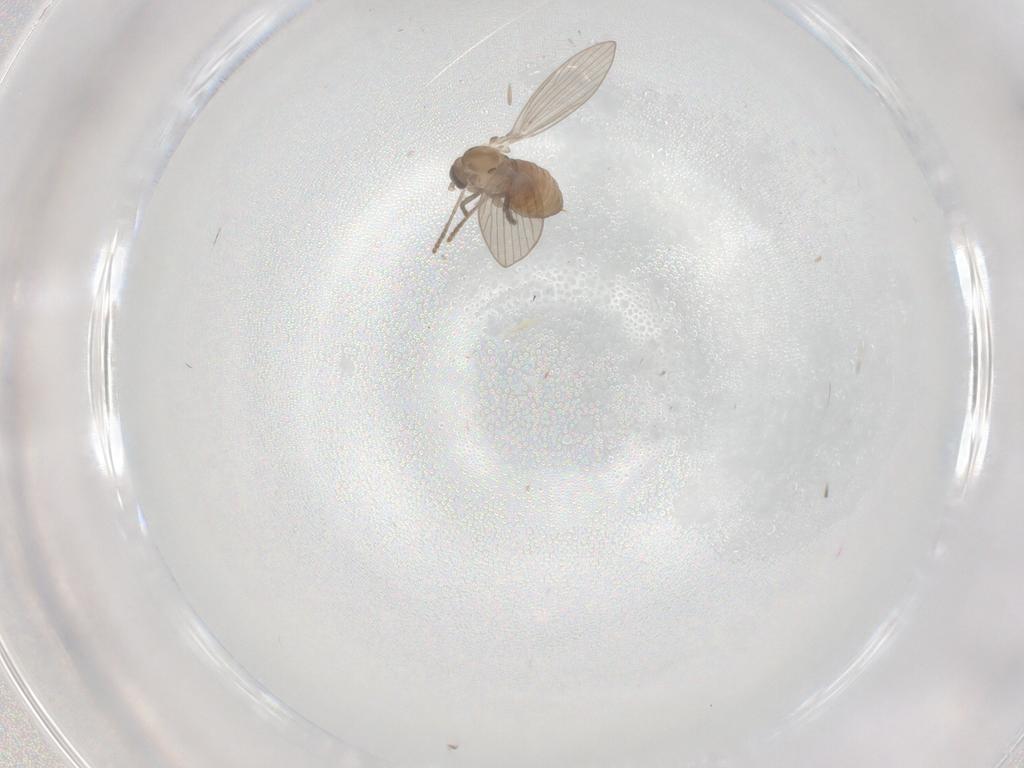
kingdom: Animalia
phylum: Arthropoda
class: Insecta
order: Diptera
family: Psychodidae
